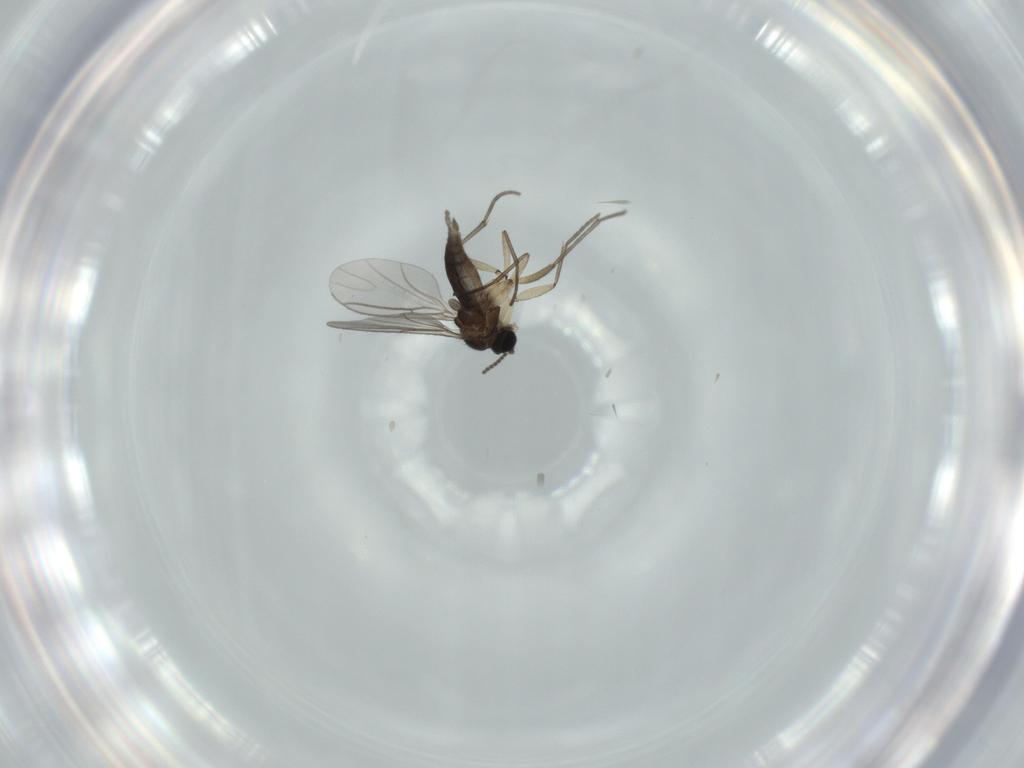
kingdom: Animalia
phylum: Arthropoda
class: Insecta
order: Diptera
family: Sciaridae
